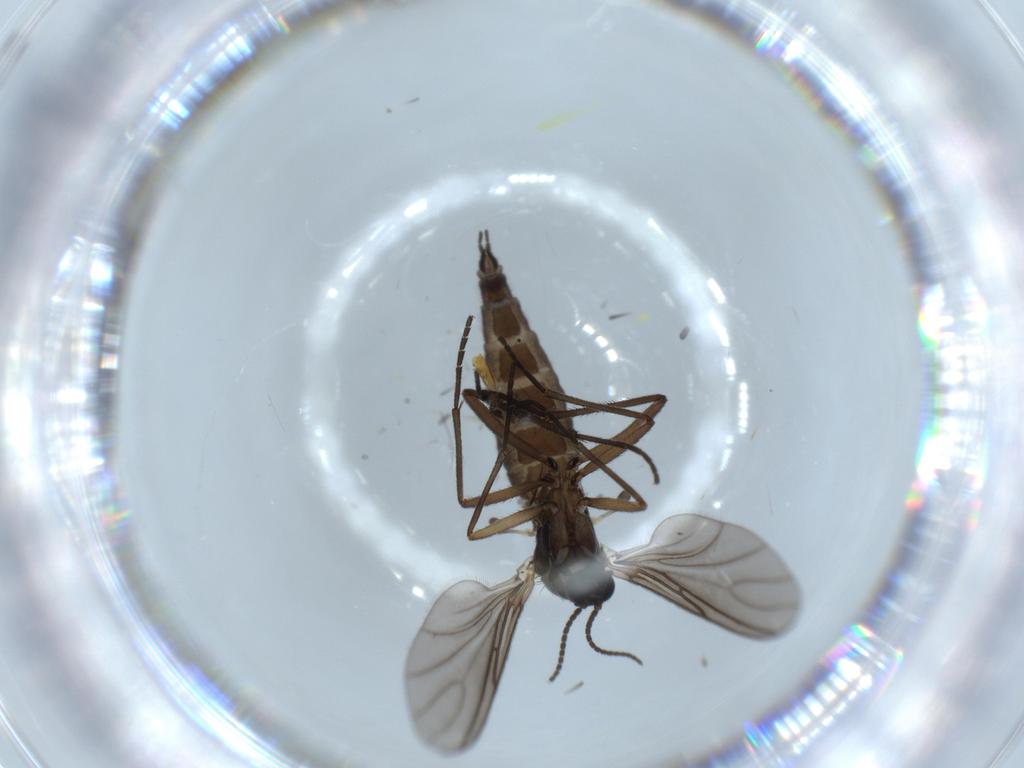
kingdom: Animalia
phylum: Arthropoda
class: Insecta
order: Diptera
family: Sciaridae
